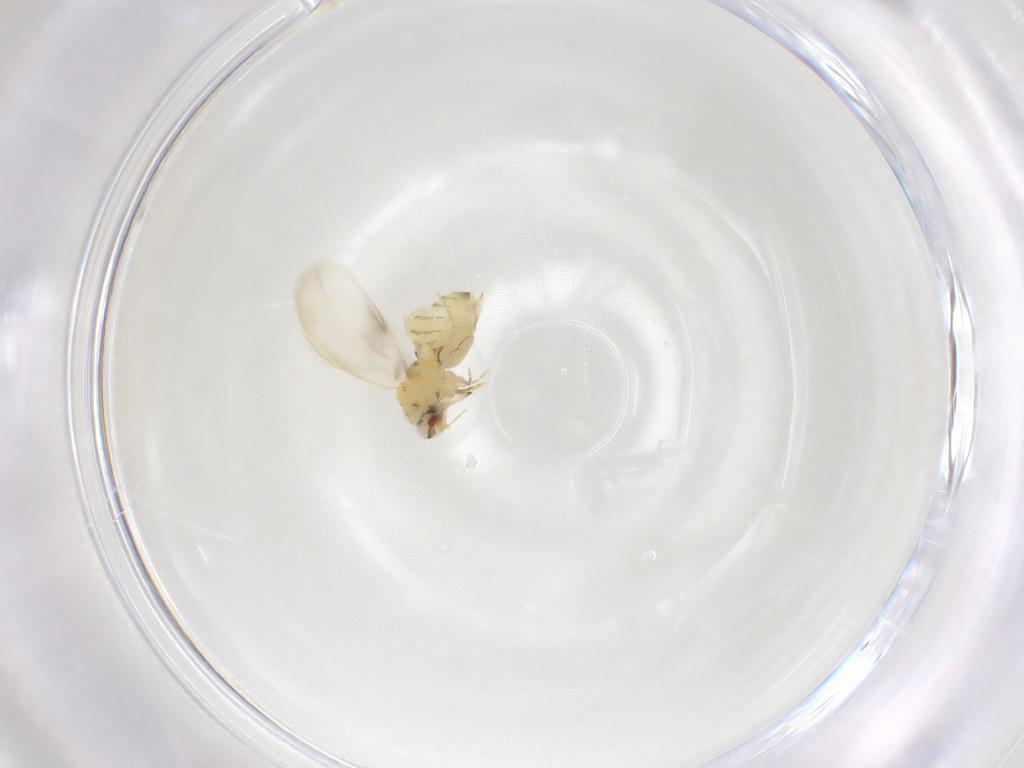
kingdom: Animalia
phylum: Arthropoda
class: Insecta
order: Hemiptera
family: Aleyrodidae
